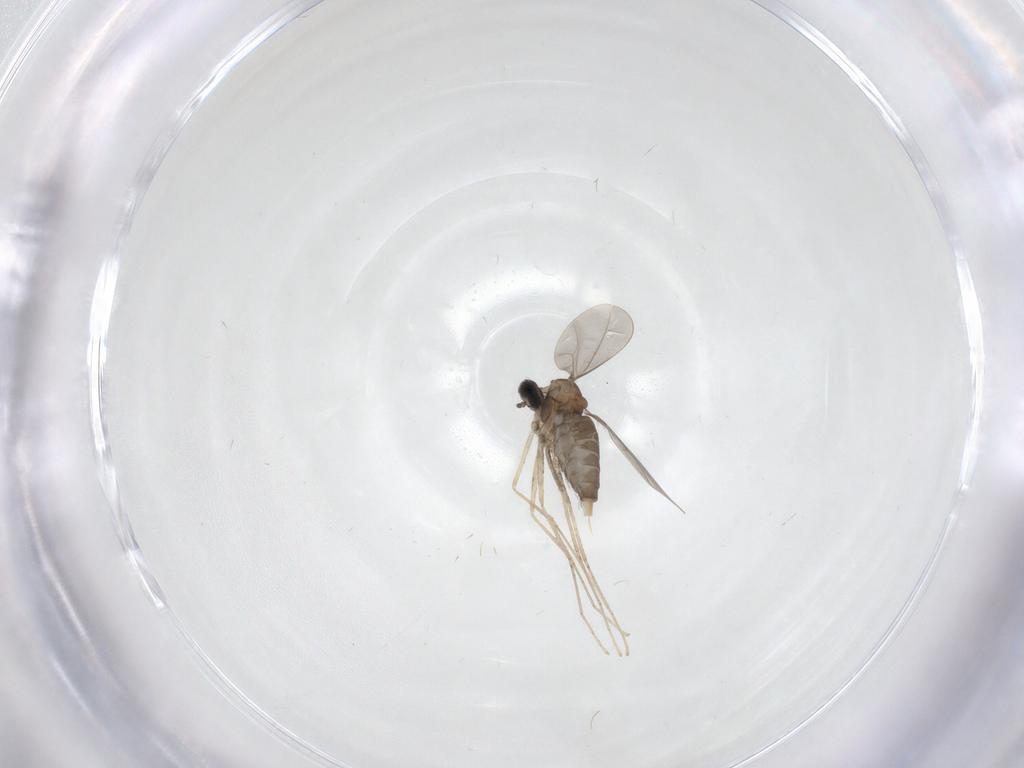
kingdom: Animalia
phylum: Arthropoda
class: Insecta
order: Diptera
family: Cecidomyiidae
